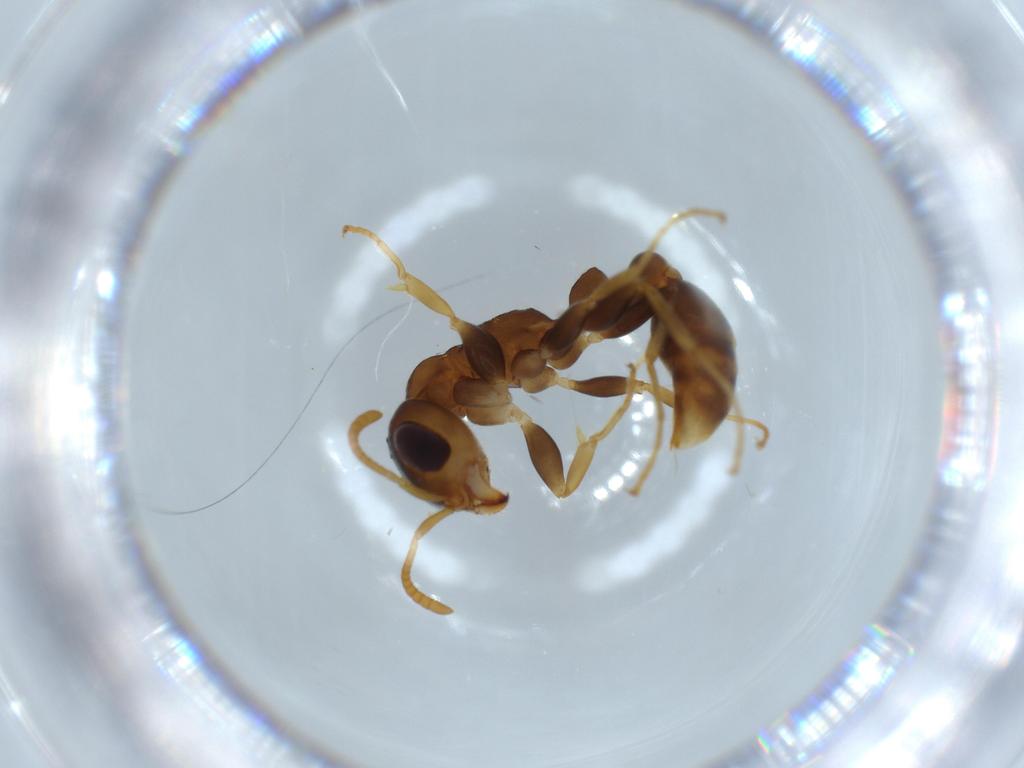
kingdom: Animalia
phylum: Arthropoda
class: Insecta
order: Hymenoptera
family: Formicidae
